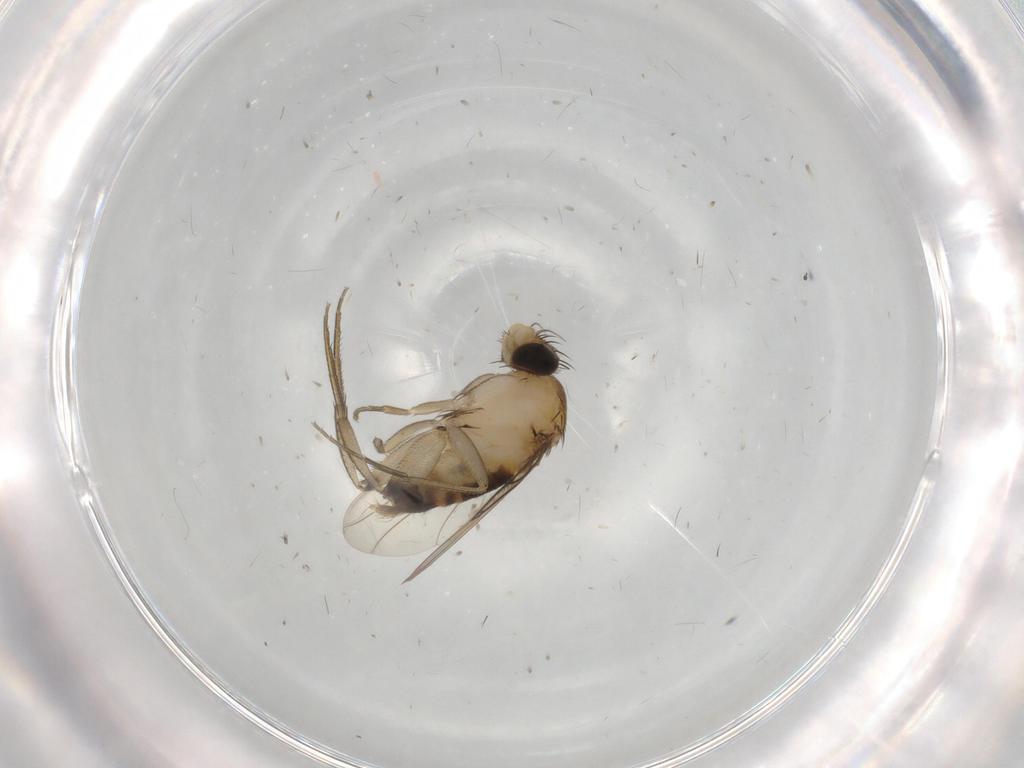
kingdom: Animalia
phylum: Arthropoda
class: Insecta
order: Diptera
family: Phoridae
